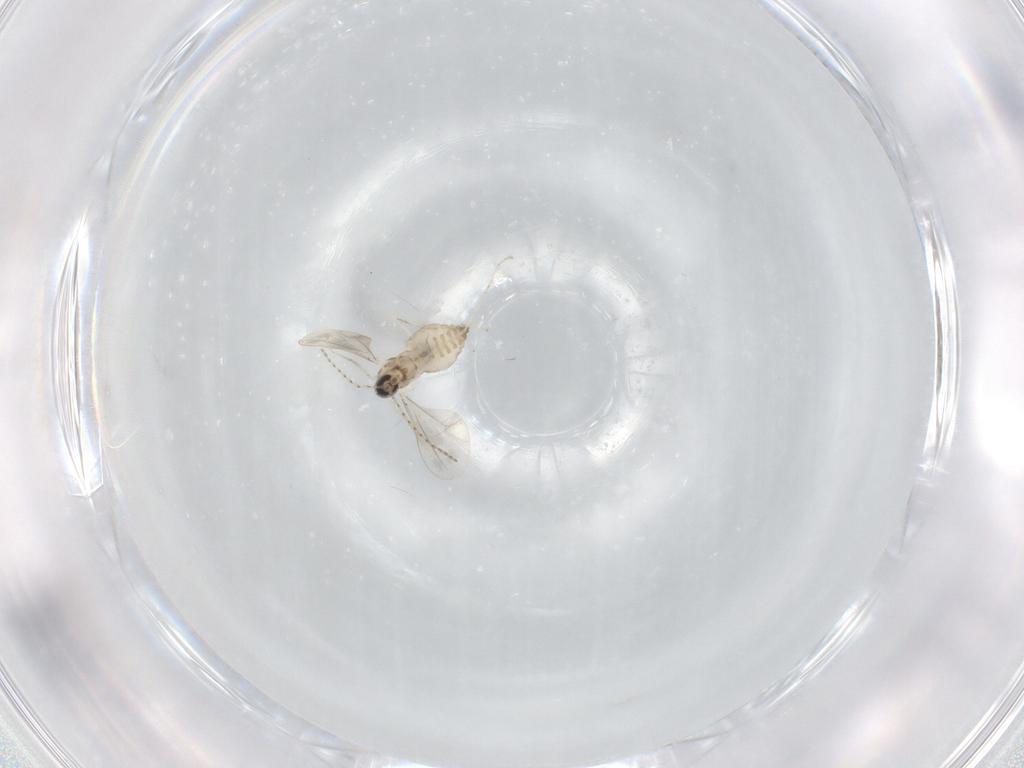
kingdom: Animalia
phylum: Arthropoda
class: Insecta
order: Diptera
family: Cecidomyiidae
